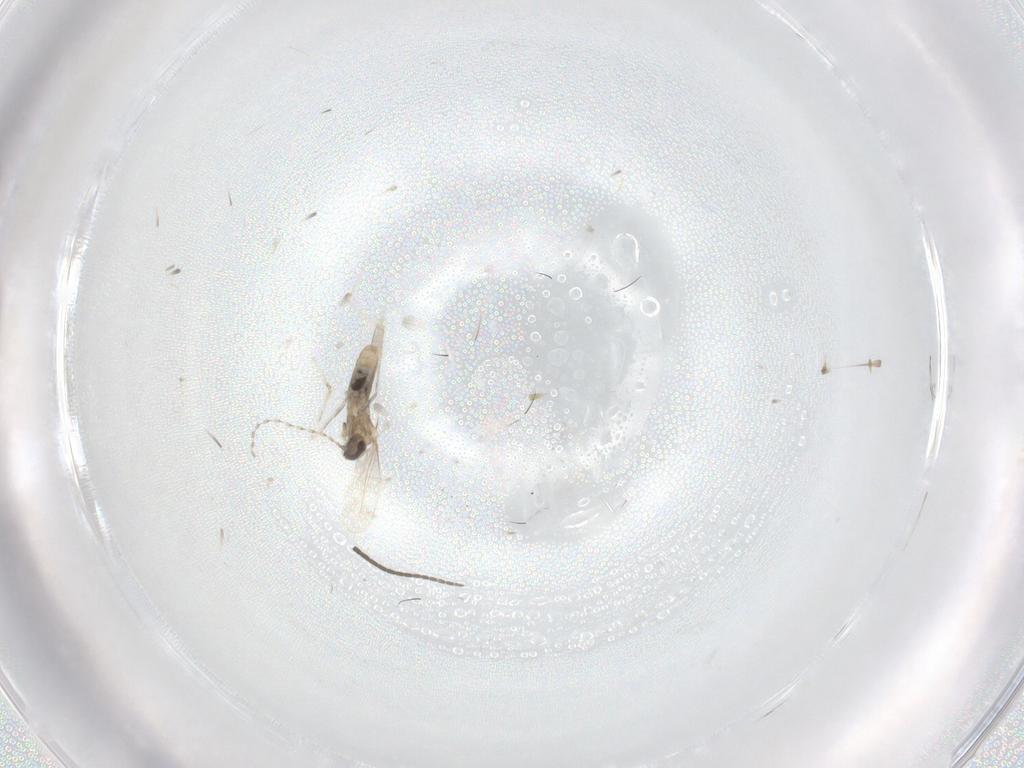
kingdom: Animalia
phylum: Arthropoda
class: Insecta
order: Diptera
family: Sciaridae
